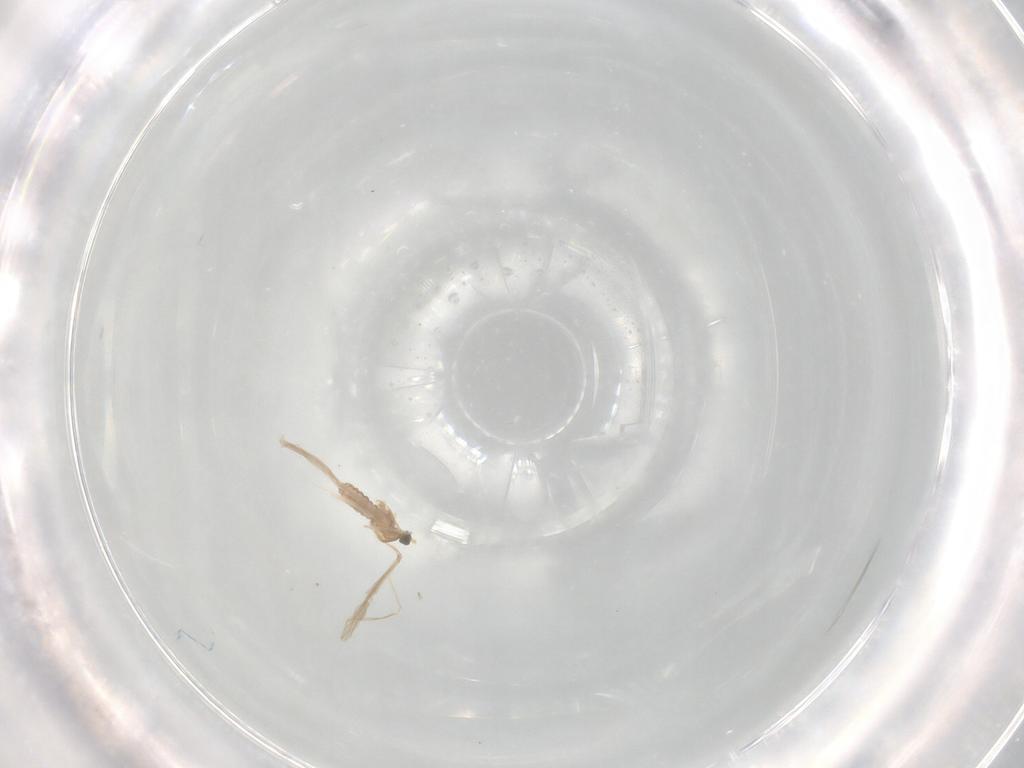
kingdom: Animalia
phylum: Arthropoda
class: Insecta
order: Diptera
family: Cecidomyiidae
